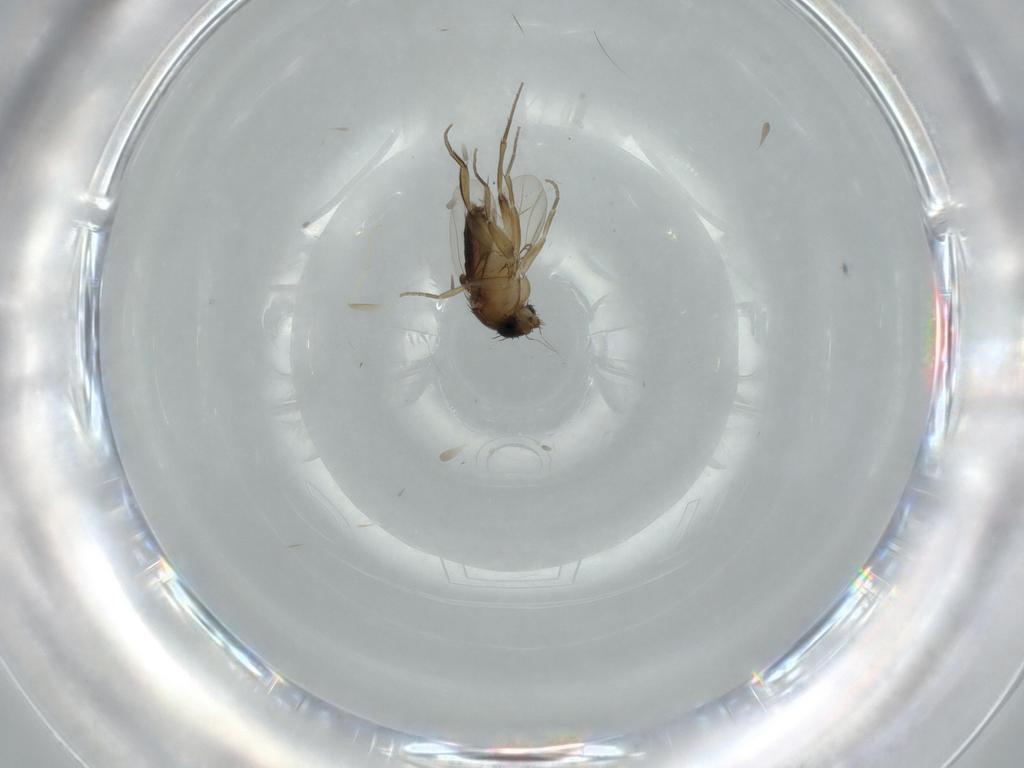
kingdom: Animalia
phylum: Arthropoda
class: Insecta
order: Diptera
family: Phoridae
